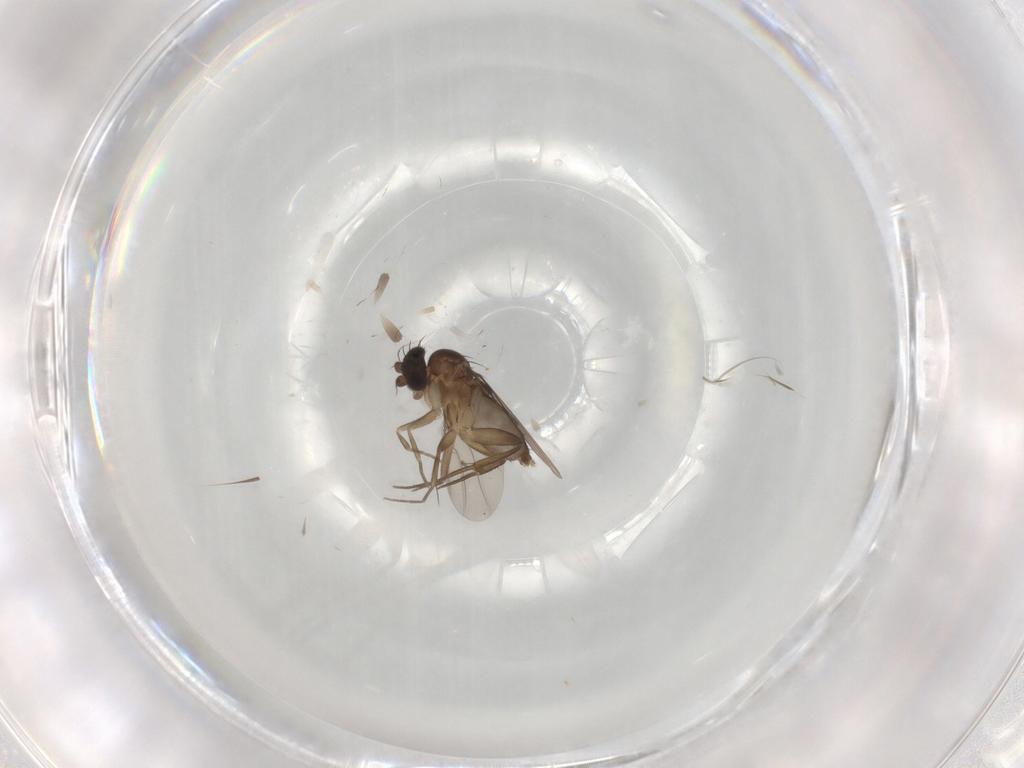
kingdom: Animalia
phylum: Arthropoda
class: Insecta
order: Diptera
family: Phoridae
